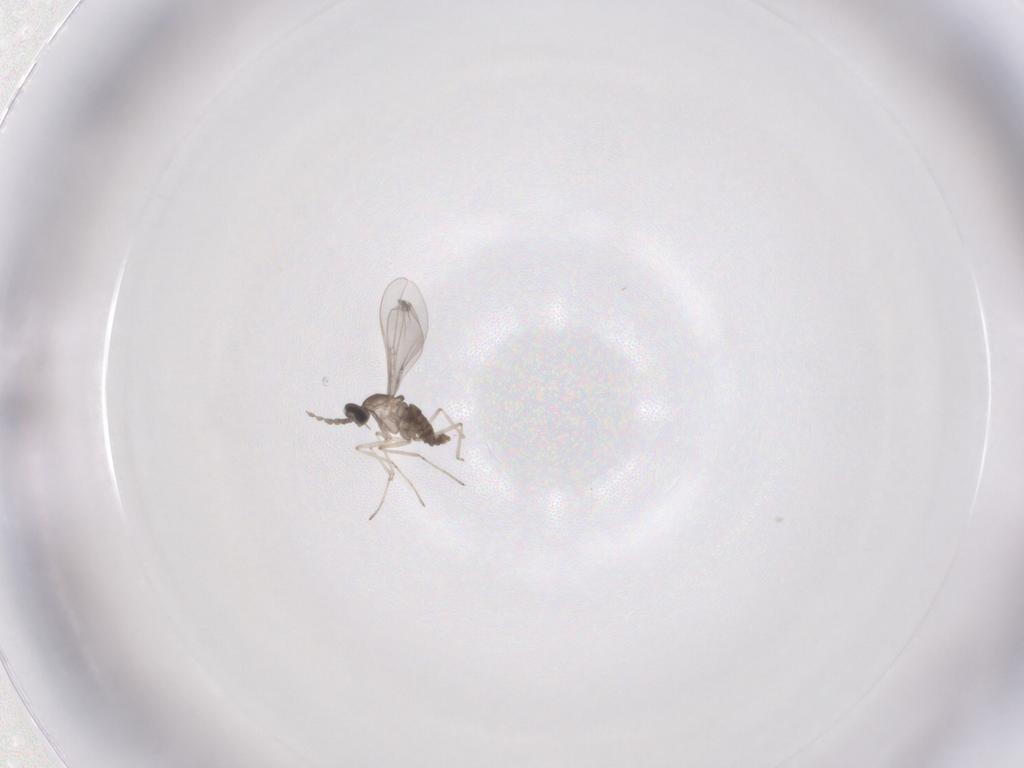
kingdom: Animalia
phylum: Arthropoda
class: Insecta
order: Diptera
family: Cecidomyiidae
